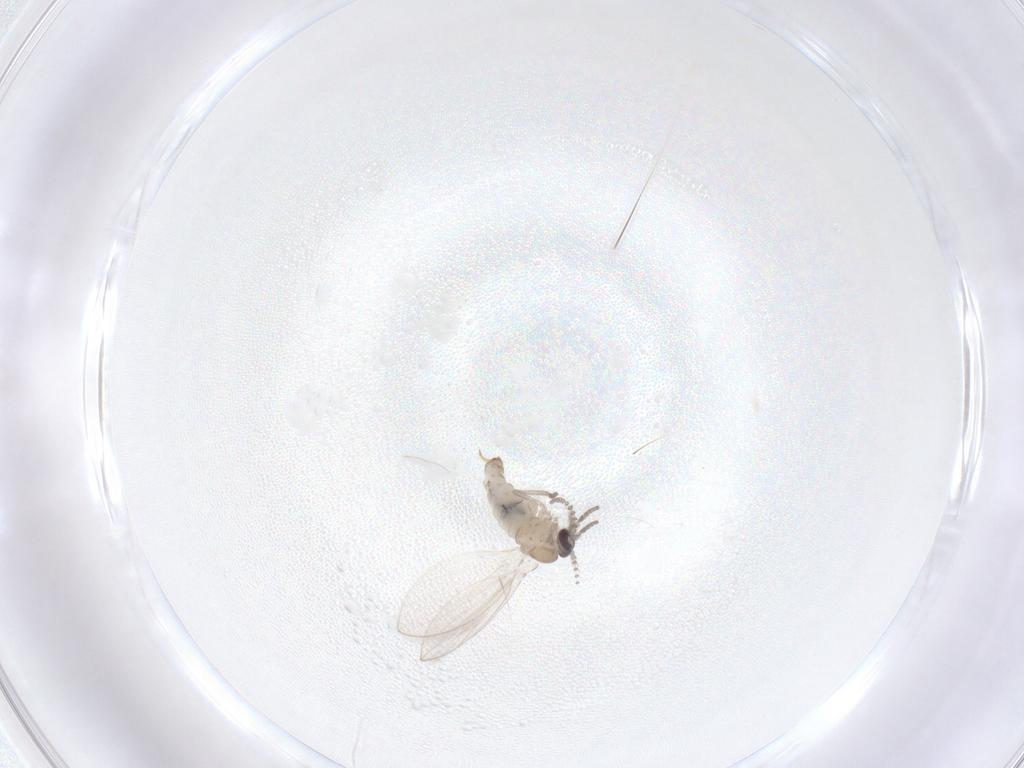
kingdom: Animalia
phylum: Arthropoda
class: Insecta
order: Diptera
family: Psychodidae
